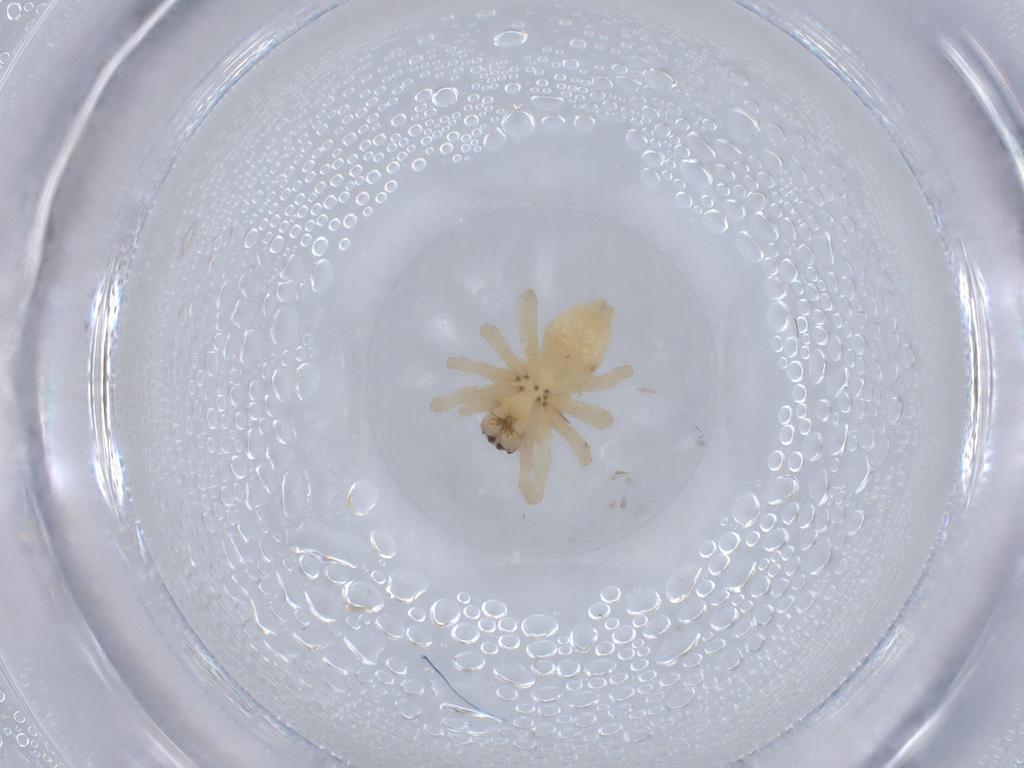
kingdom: Animalia
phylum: Arthropoda
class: Arachnida
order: Araneae
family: Cheiracanthiidae
